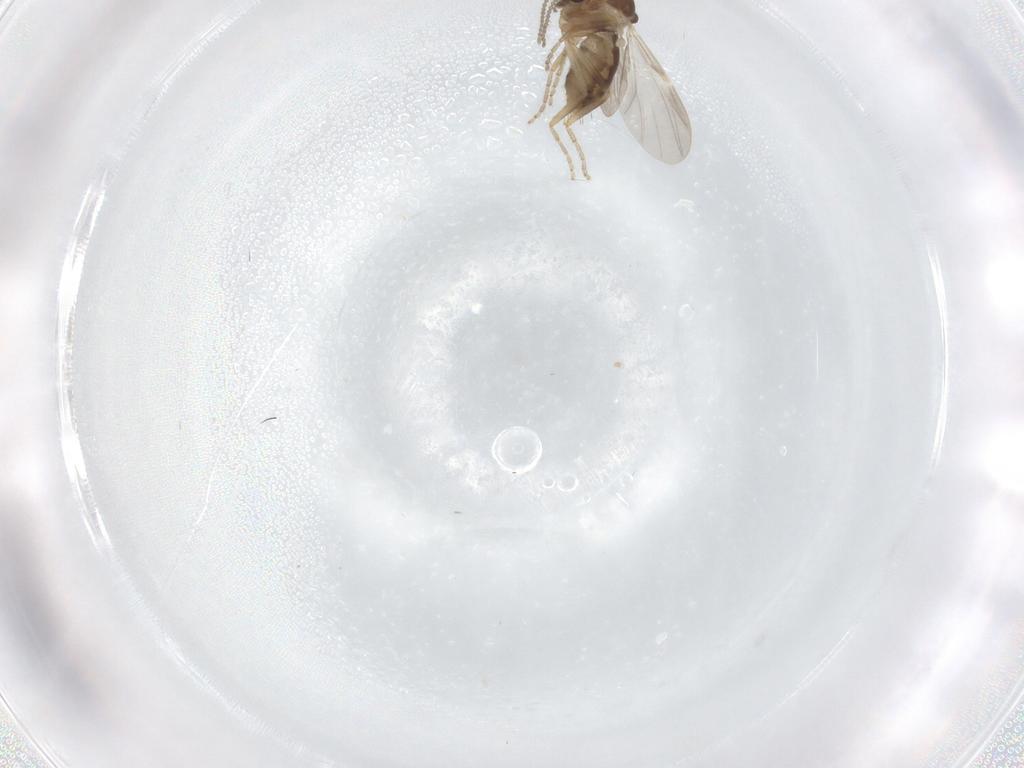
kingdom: Animalia
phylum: Arthropoda
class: Insecta
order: Diptera
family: Ceratopogonidae
